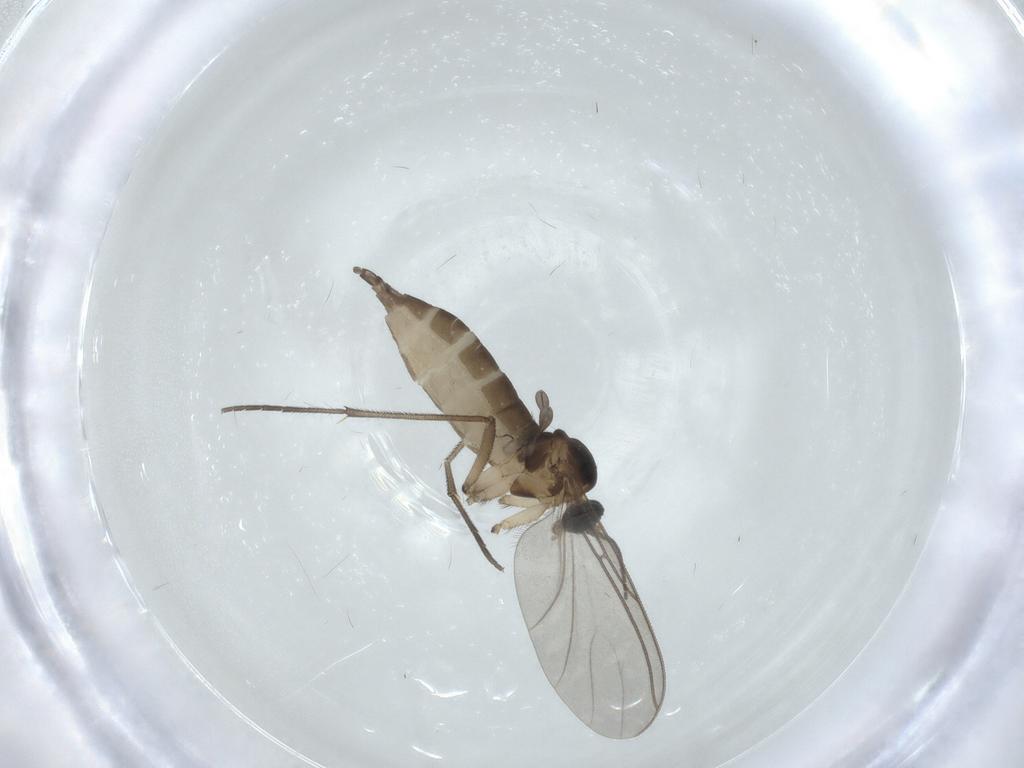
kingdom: Animalia
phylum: Arthropoda
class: Insecta
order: Diptera
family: Sciaridae
